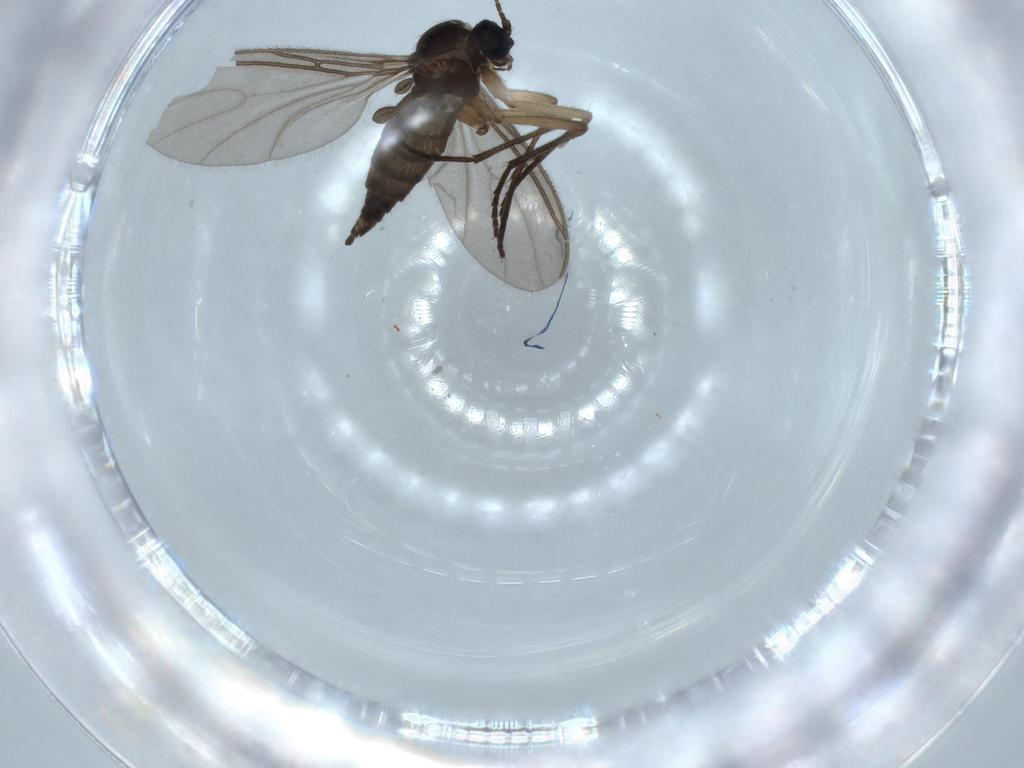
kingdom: Animalia
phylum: Arthropoda
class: Insecta
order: Diptera
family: Sciaridae
